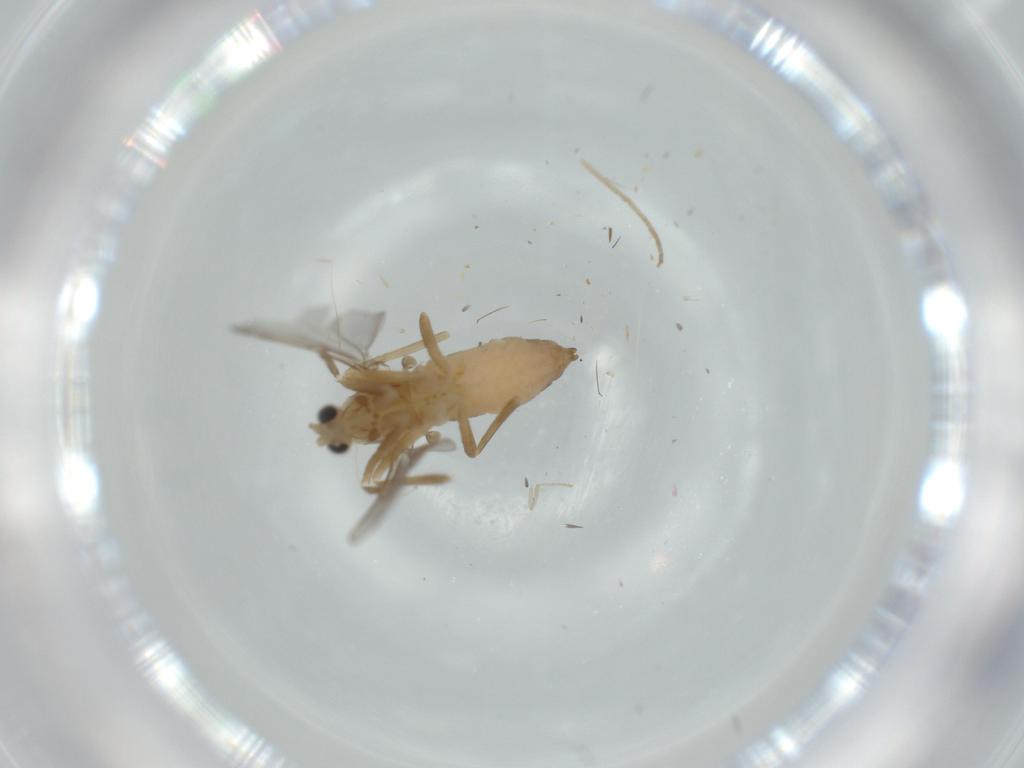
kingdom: Animalia
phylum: Arthropoda
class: Insecta
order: Diptera
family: Cecidomyiidae
